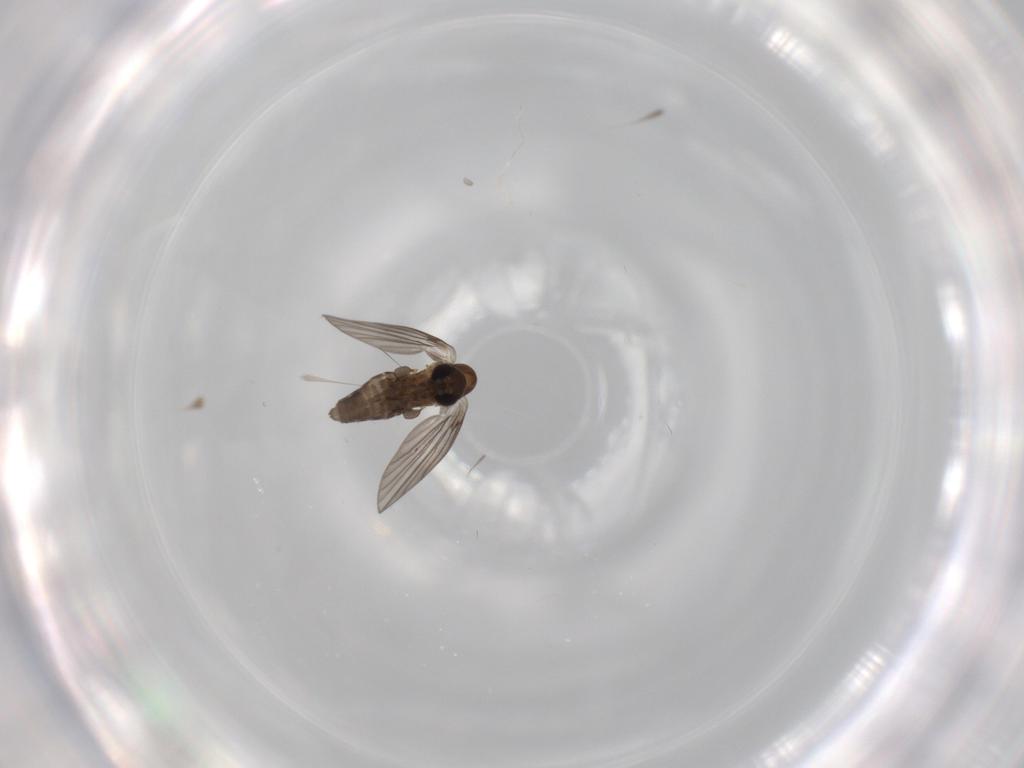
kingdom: Animalia
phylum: Arthropoda
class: Insecta
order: Diptera
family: Psychodidae
